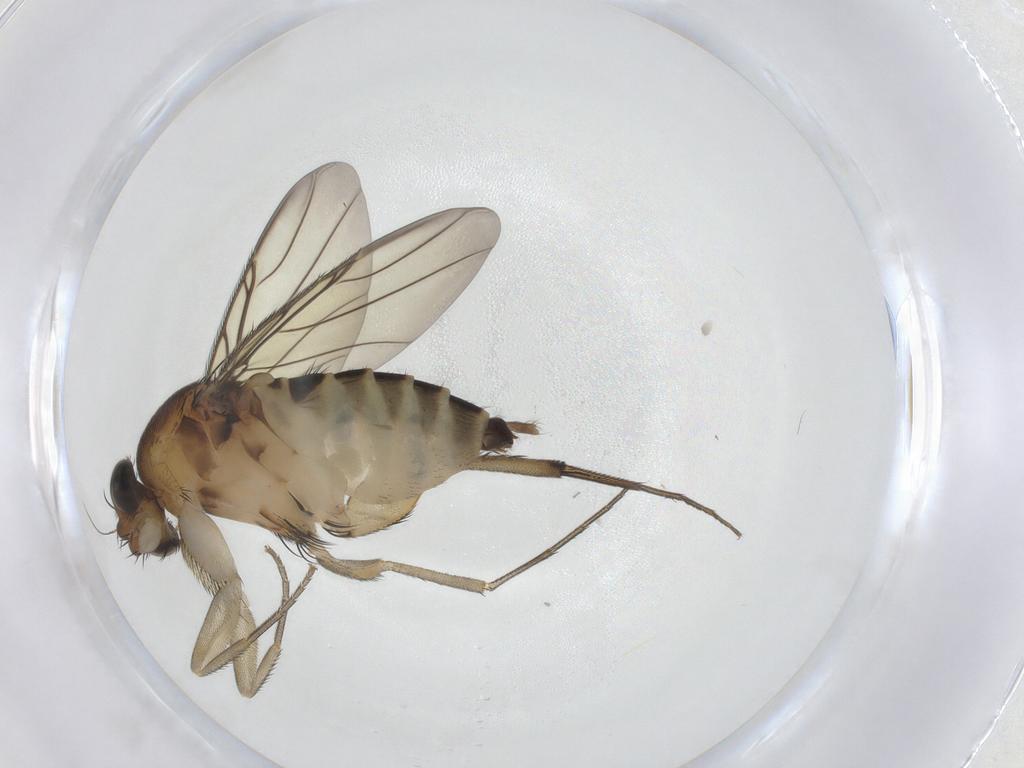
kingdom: Animalia
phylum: Arthropoda
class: Insecta
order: Diptera
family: Phoridae
